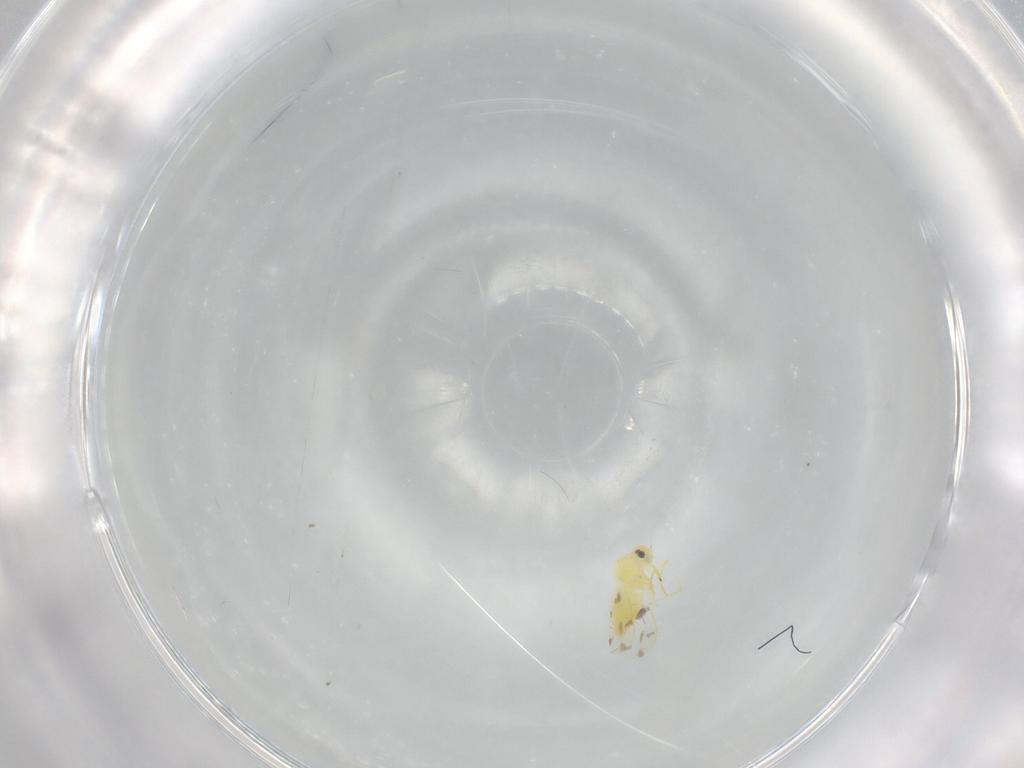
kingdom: Animalia
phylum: Arthropoda
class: Insecta
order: Hemiptera
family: Aleyrodidae
